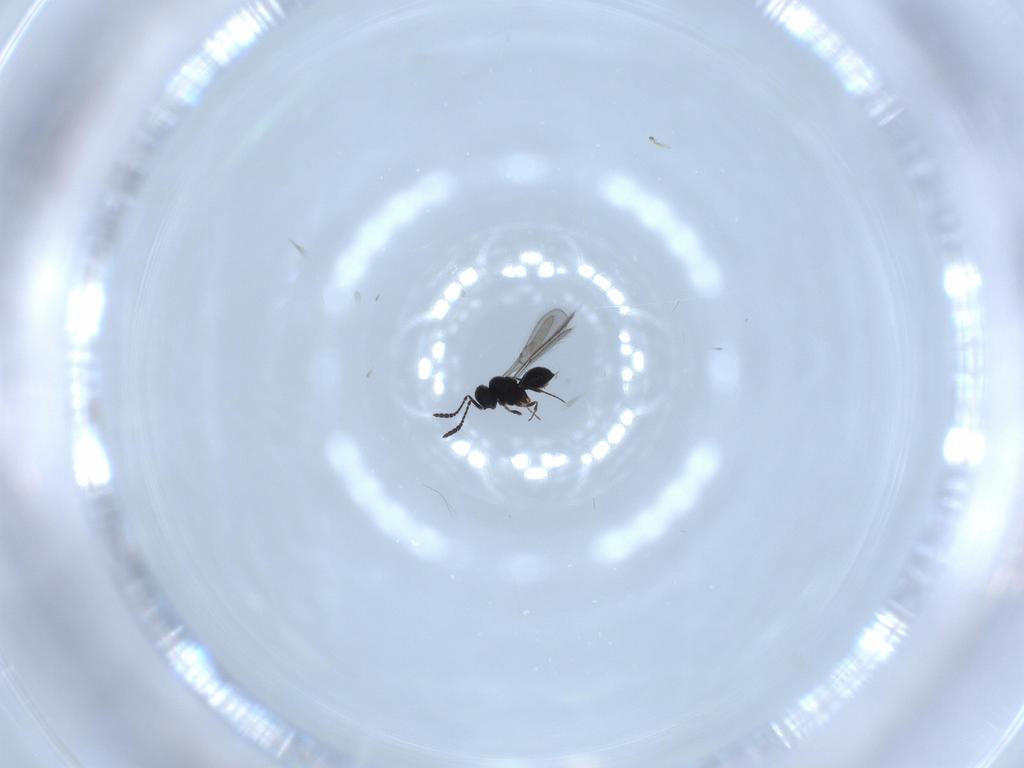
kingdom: Animalia
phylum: Arthropoda
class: Insecta
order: Hymenoptera
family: Scelionidae
